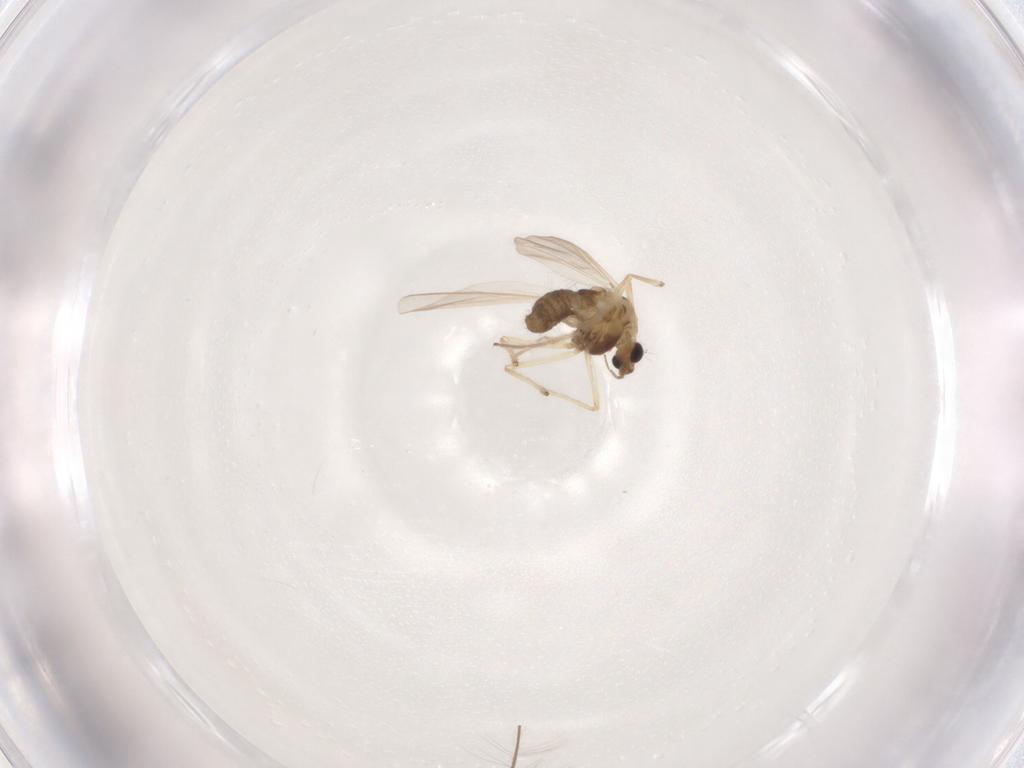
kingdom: Animalia
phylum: Arthropoda
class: Insecta
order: Diptera
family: Chironomidae
